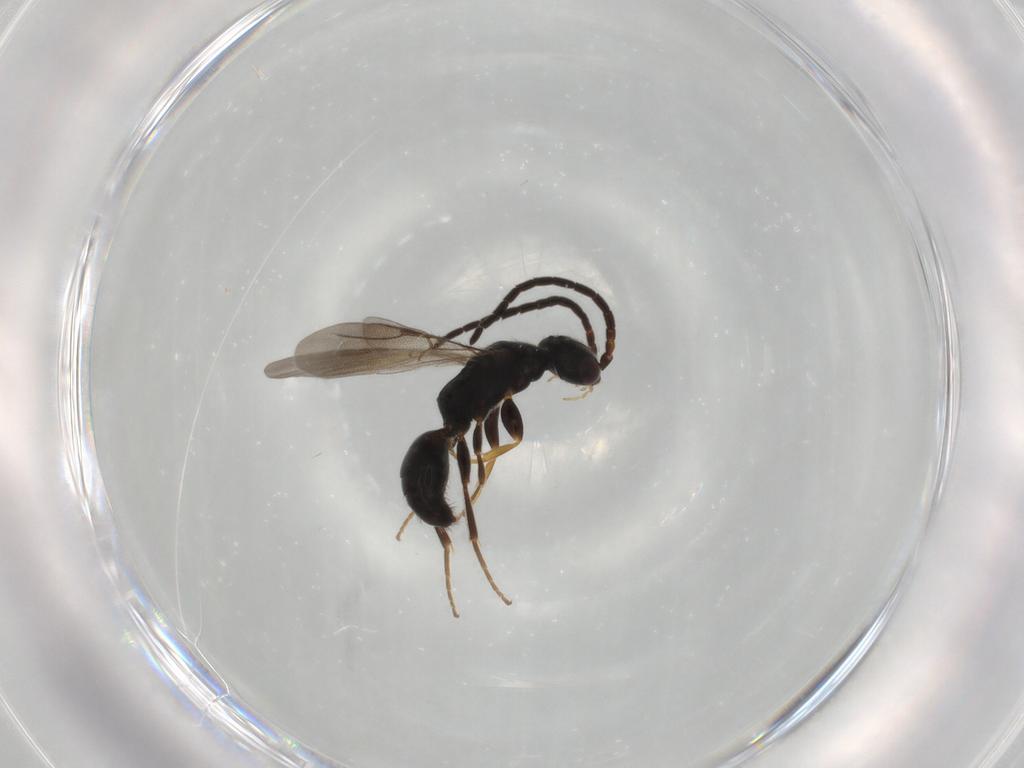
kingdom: Animalia
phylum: Arthropoda
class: Insecta
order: Hymenoptera
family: Bethylidae
